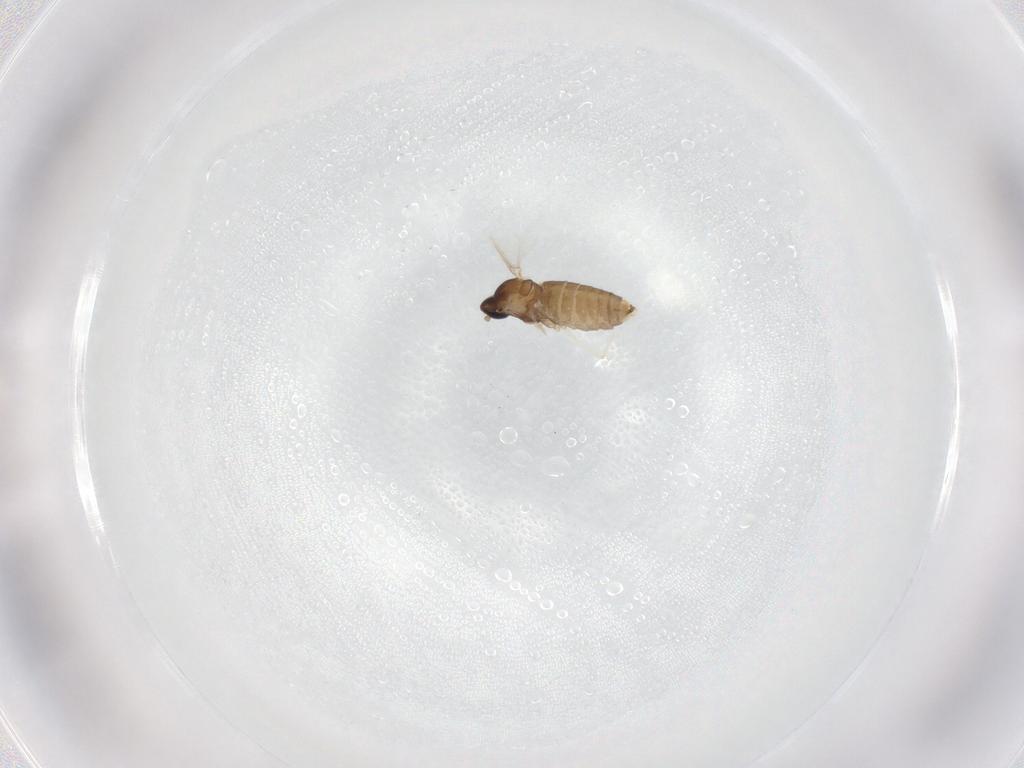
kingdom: Animalia
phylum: Arthropoda
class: Insecta
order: Diptera
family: Cecidomyiidae
